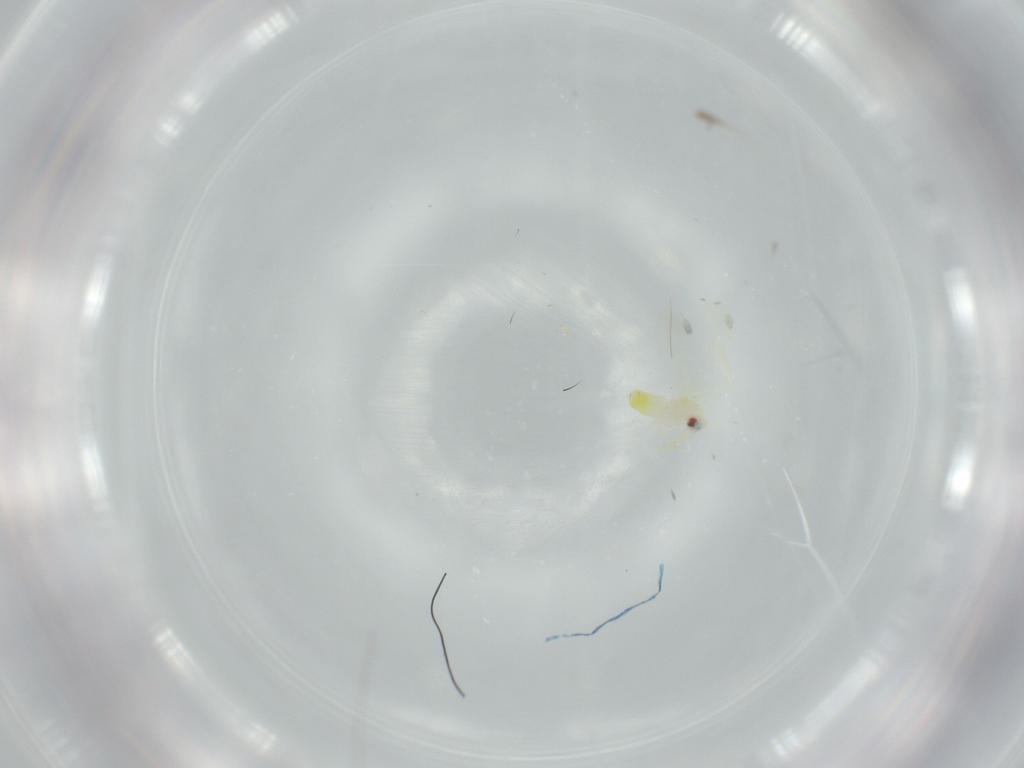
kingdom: Animalia
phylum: Arthropoda
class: Insecta
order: Hemiptera
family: Aleyrodidae
